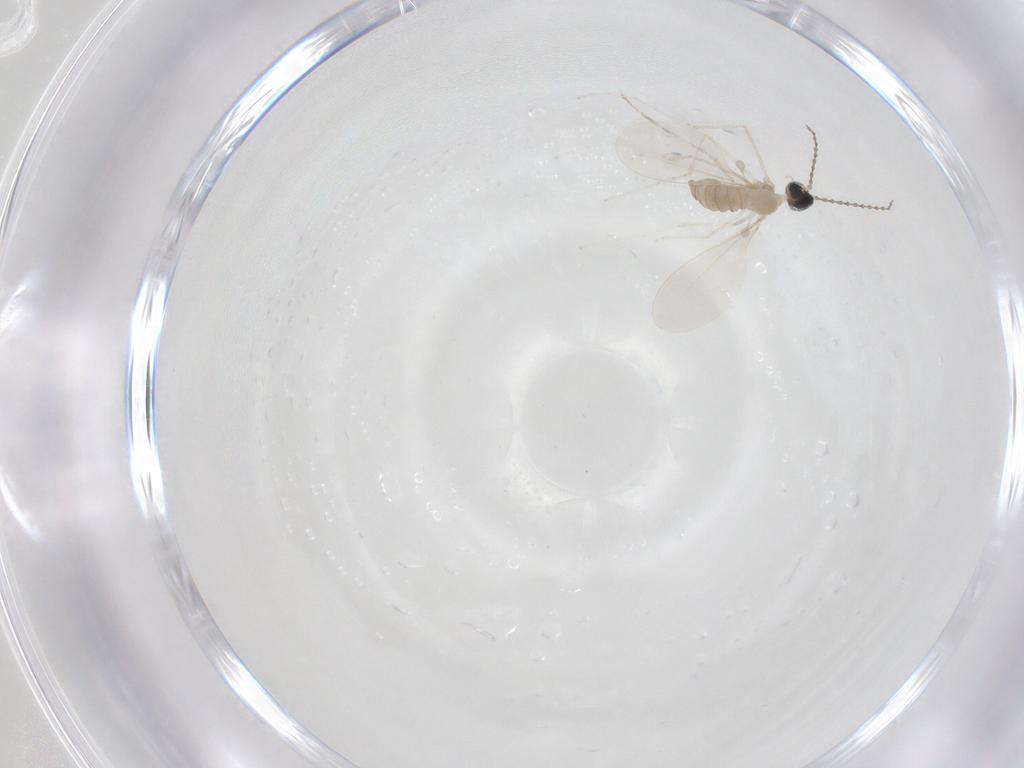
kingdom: Animalia
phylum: Arthropoda
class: Insecta
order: Diptera
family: Cecidomyiidae
